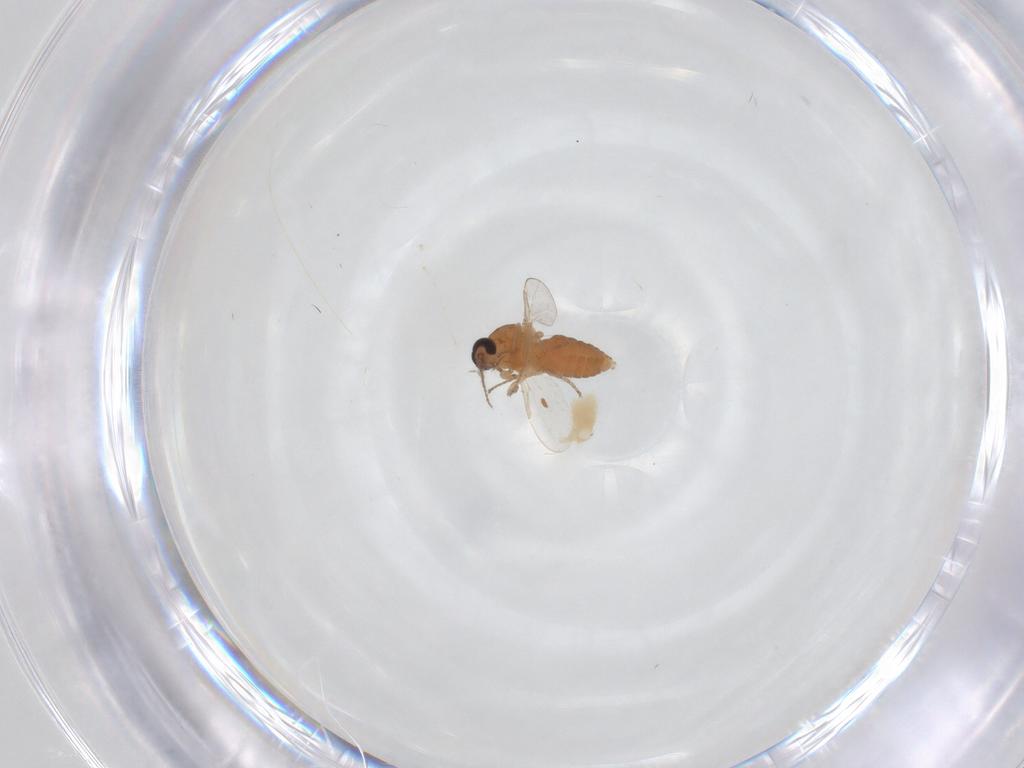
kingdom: Animalia
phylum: Arthropoda
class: Insecta
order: Diptera
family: Ceratopogonidae
